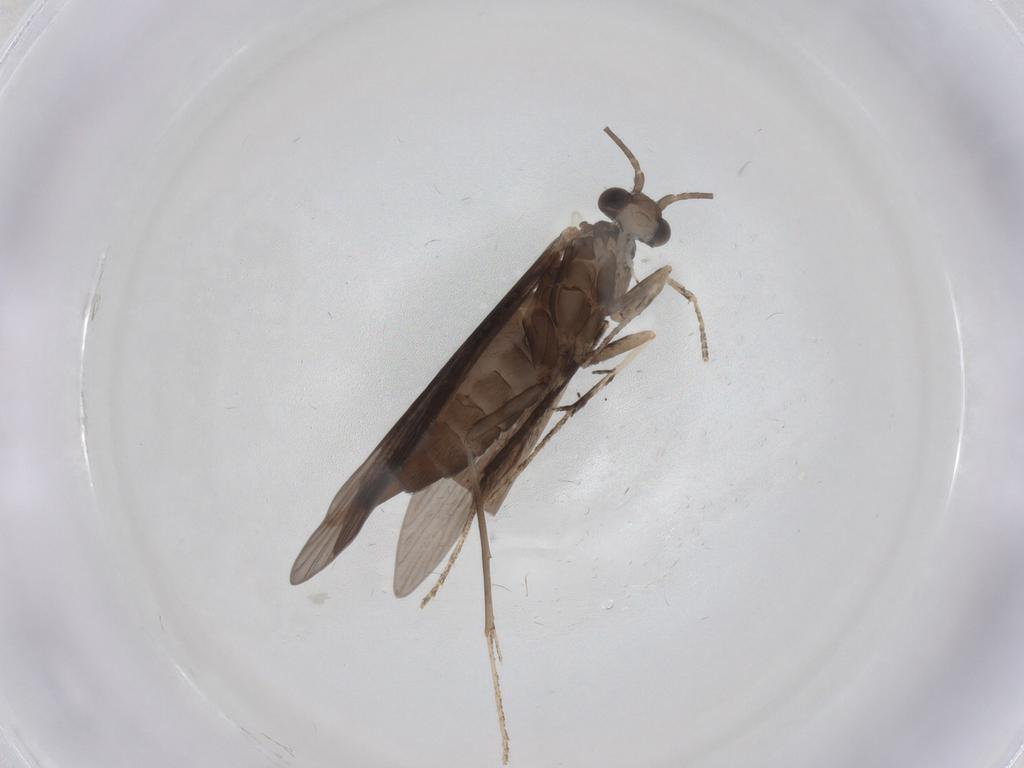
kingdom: Animalia
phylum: Arthropoda
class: Insecta
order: Trichoptera
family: Xiphocentronidae
